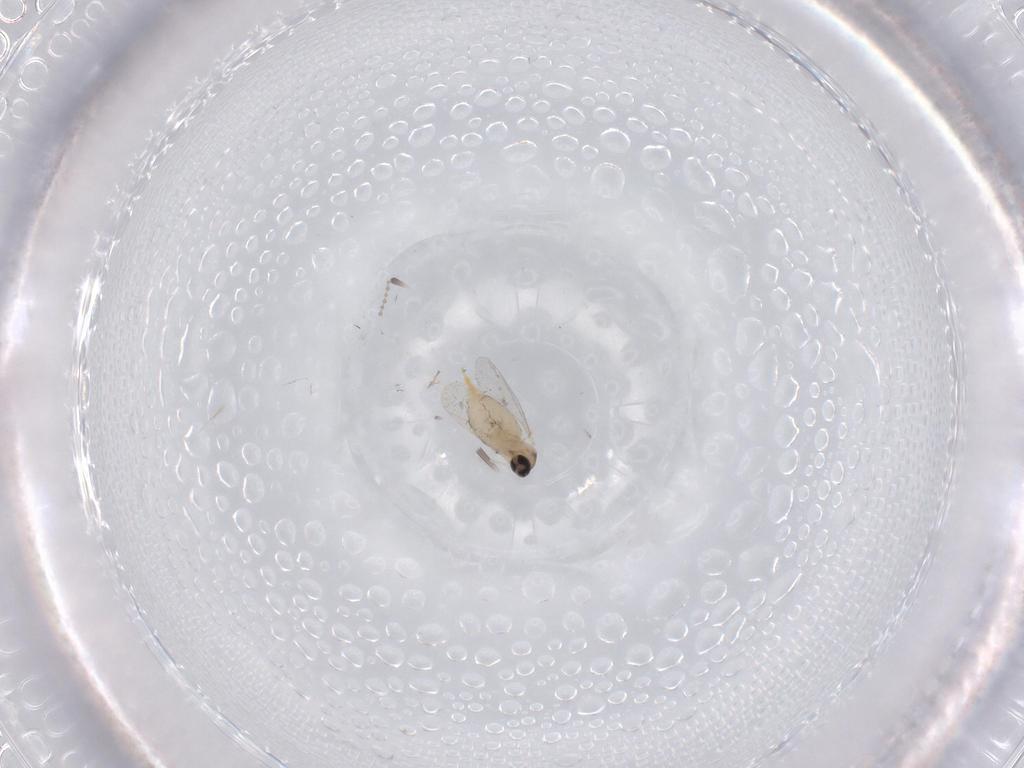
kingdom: Animalia
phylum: Arthropoda
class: Insecta
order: Diptera
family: Cecidomyiidae
